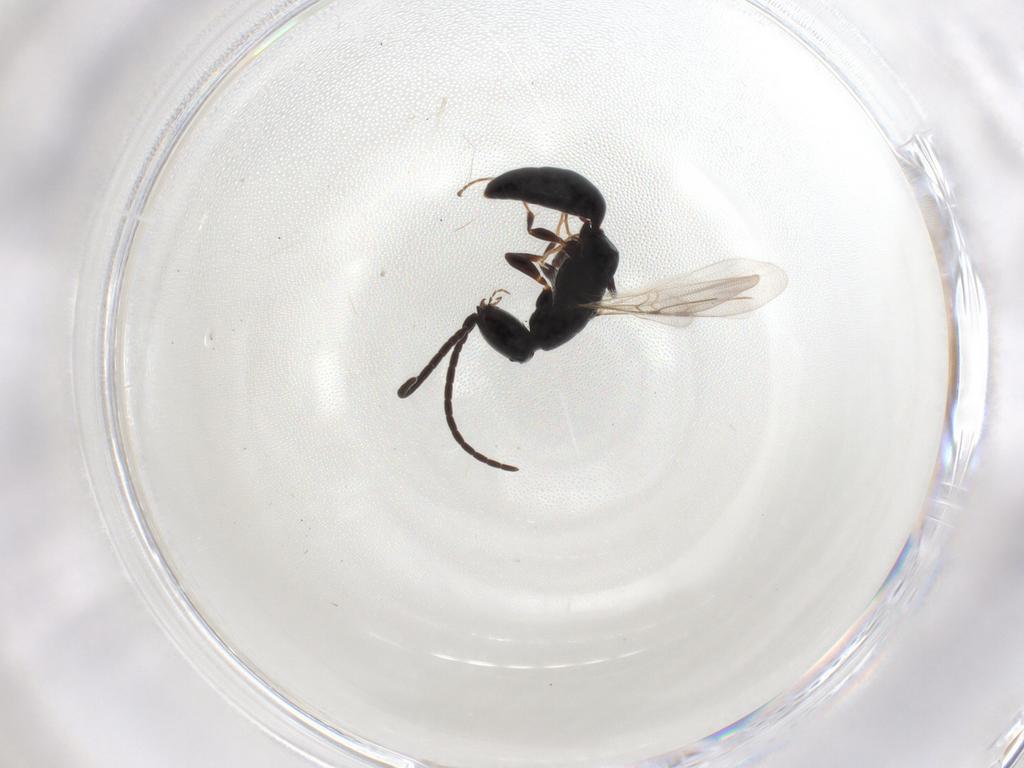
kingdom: Animalia
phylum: Arthropoda
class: Insecta
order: Hymenoptera
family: Bethylidae
